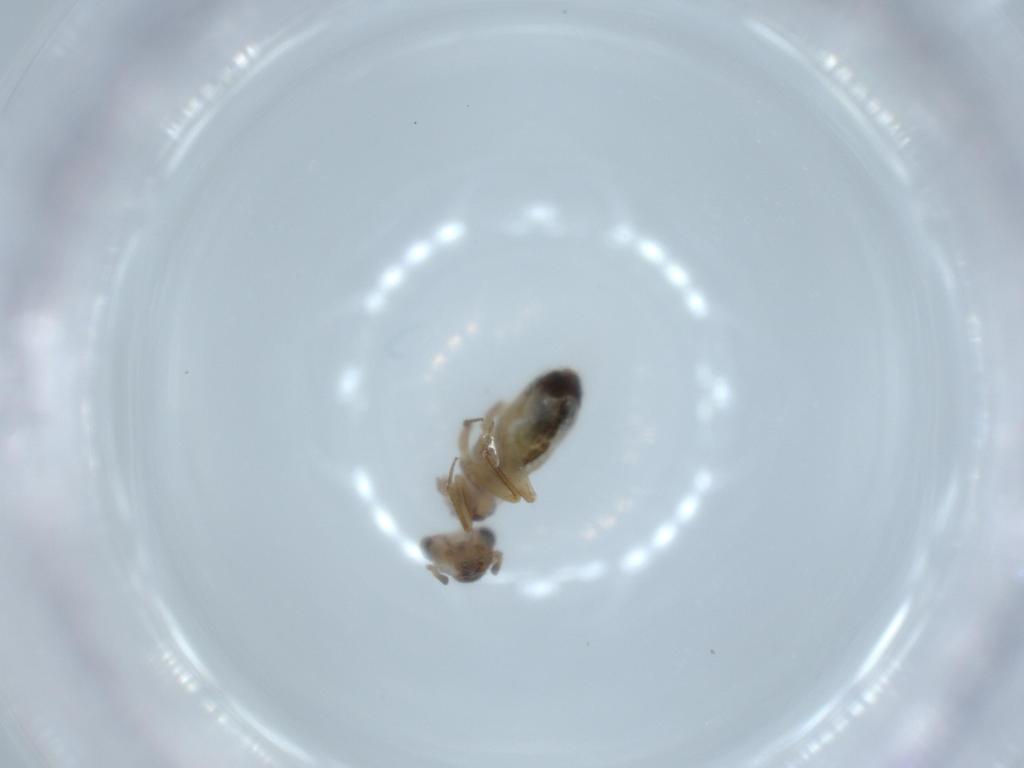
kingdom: Animalia
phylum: Arthropoda
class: Insecta
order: Psocodea
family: Lepidopsocidae
